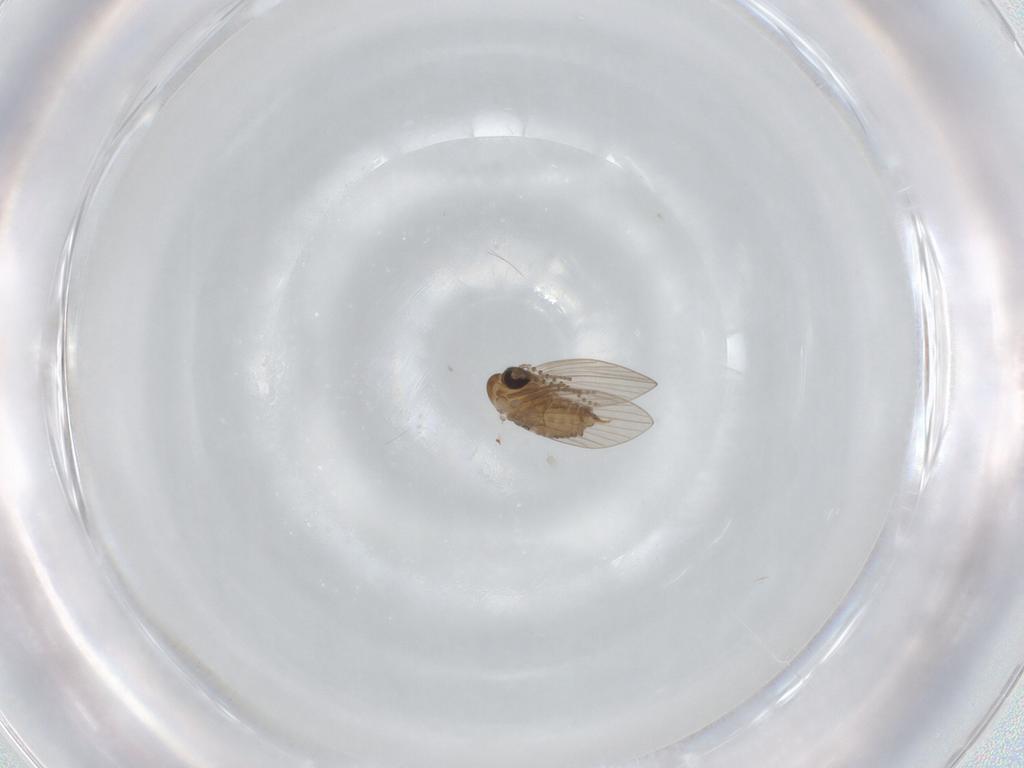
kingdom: Animalia
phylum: Arthropoda
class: Insecta
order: Diptera
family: Psychodidae
